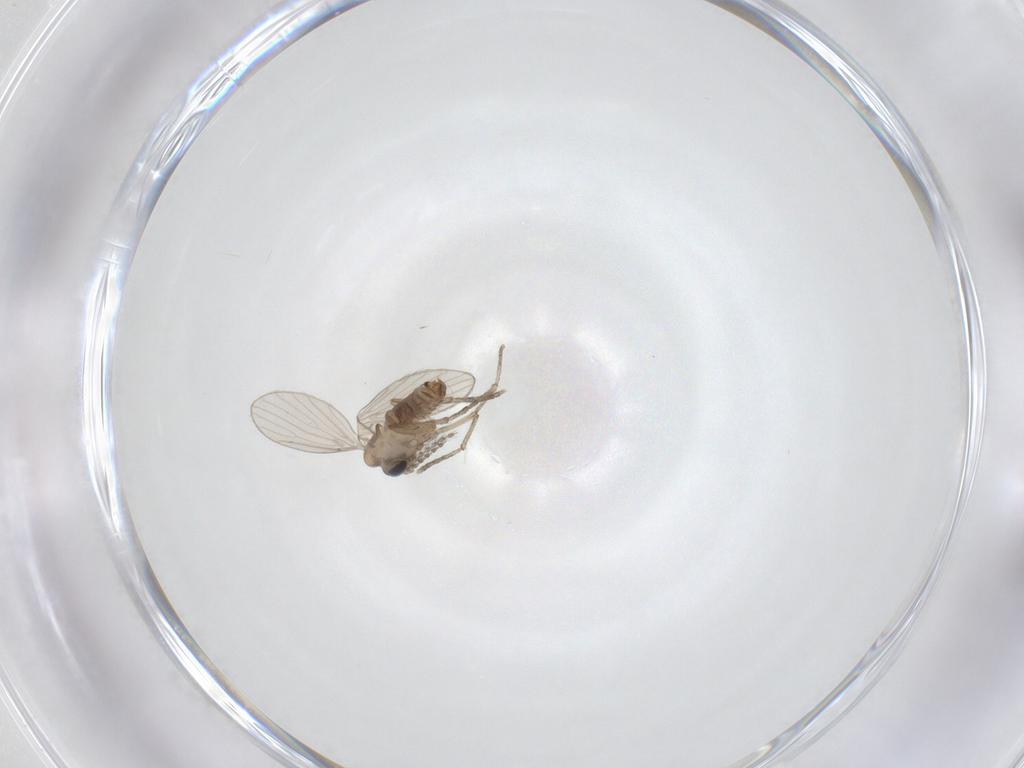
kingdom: Animalia
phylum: Arthropoda
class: Insecta
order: Diptera
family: Psychodidae
